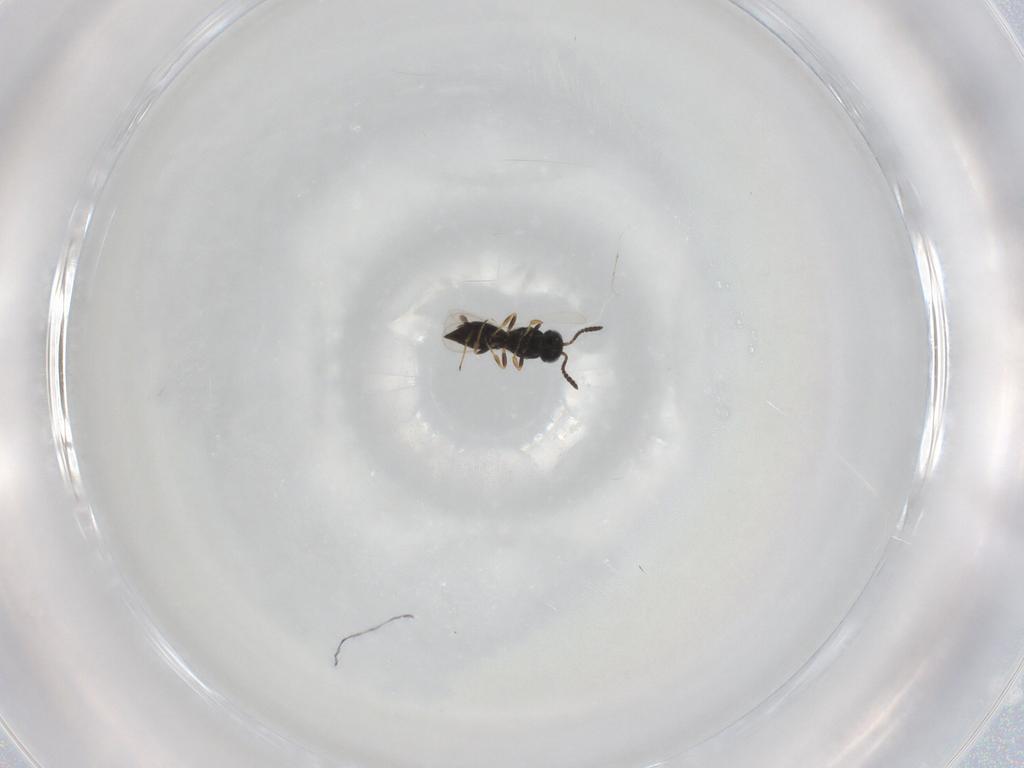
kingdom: Animalia
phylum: Arthropoda
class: Insecta
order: Hymenoptera
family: Scelionidae
